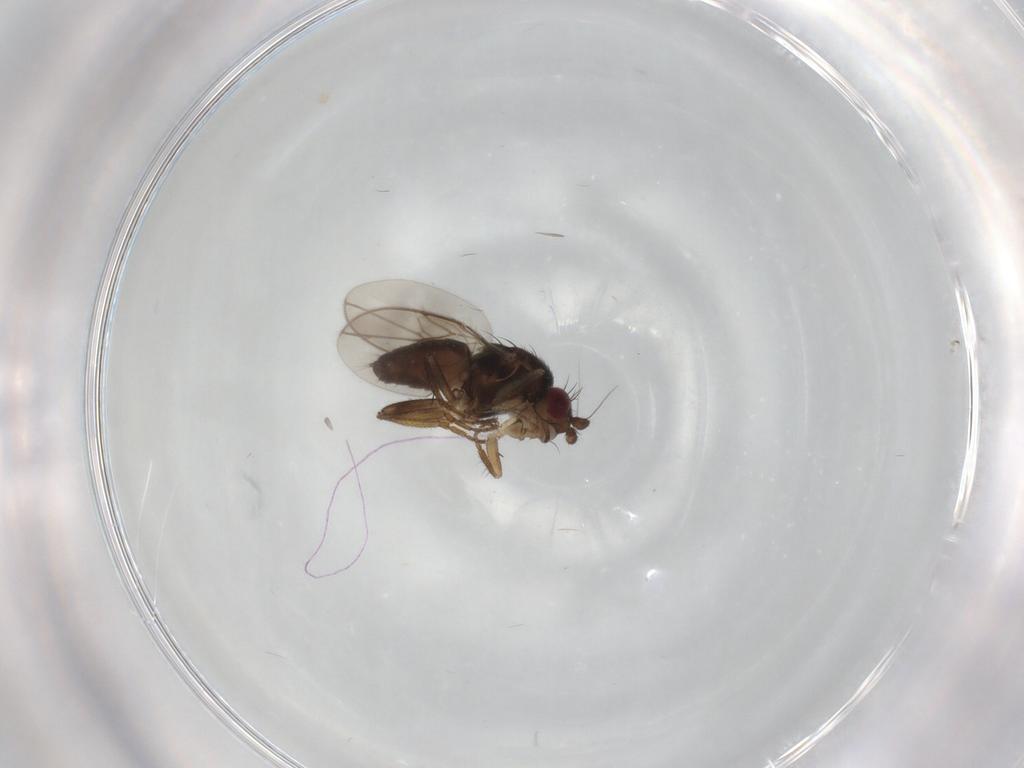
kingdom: Animalia
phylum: Arthropoda
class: Insecta
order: Diptera
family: Sphaeroceridae
